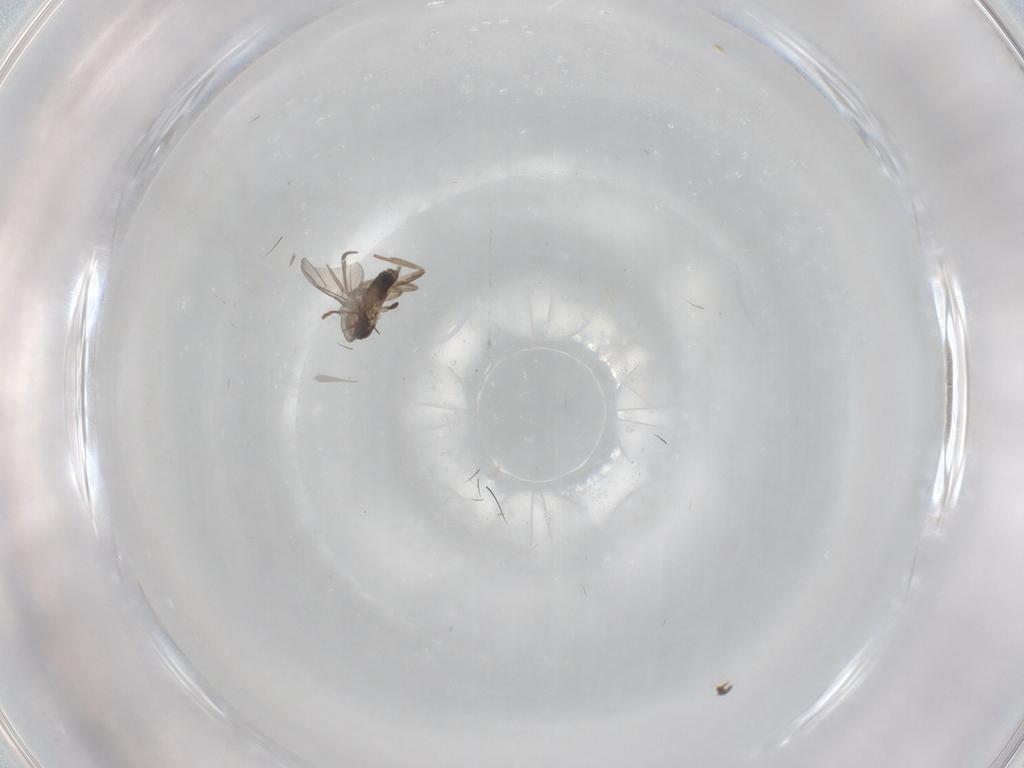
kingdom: Animalia
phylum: Arthropoda
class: Insecta
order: Diptera
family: Phoridae
